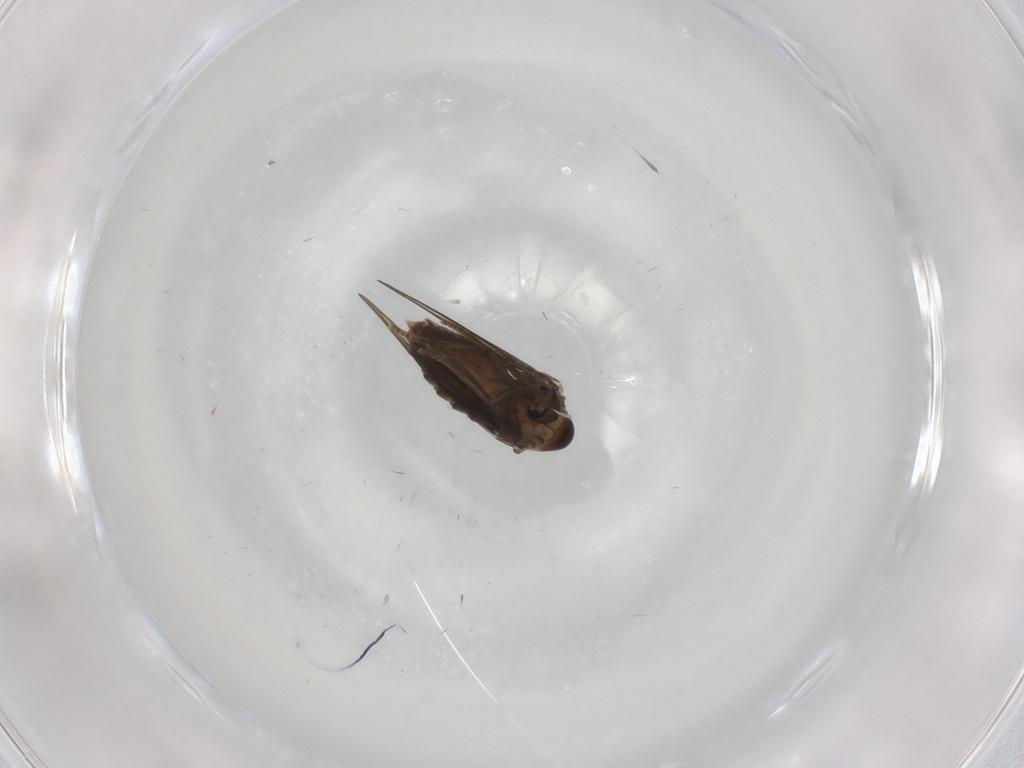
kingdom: Animalia
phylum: Arthropoda
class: Insecta
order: Diptera
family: Psychodidae
